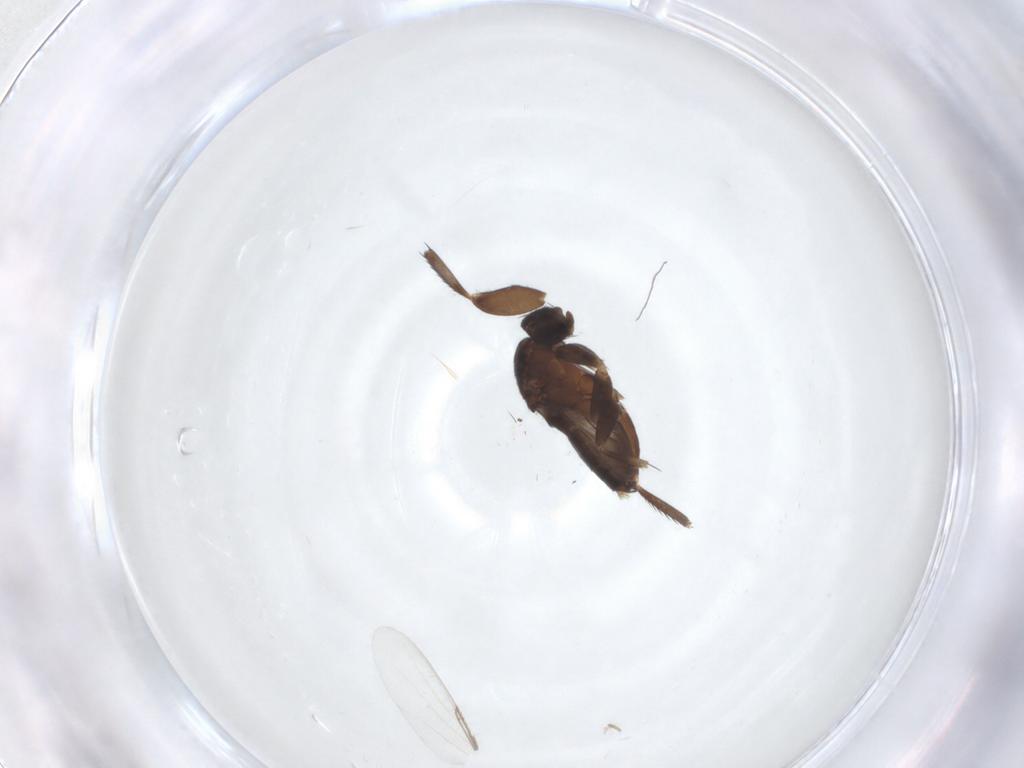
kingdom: Animalia
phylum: Arthropoda
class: Insecta
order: Diptera
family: Phoridae
